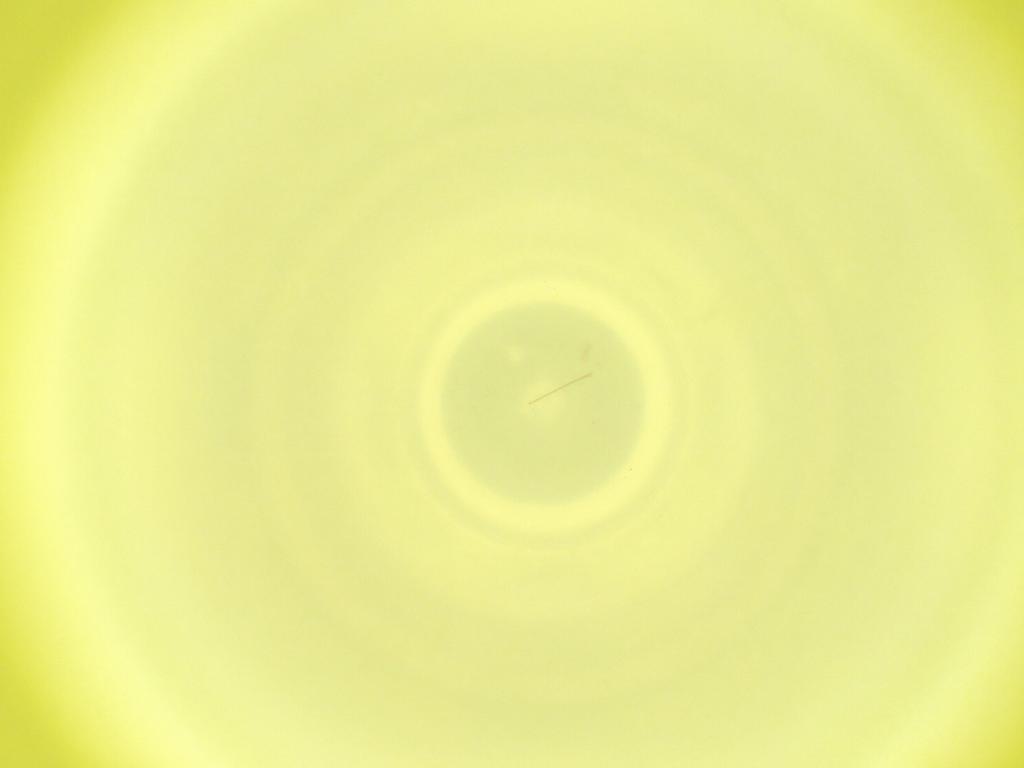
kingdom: Animalia
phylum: Arthropoda
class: Insecta
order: Diptera
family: Cecidomyiidae
